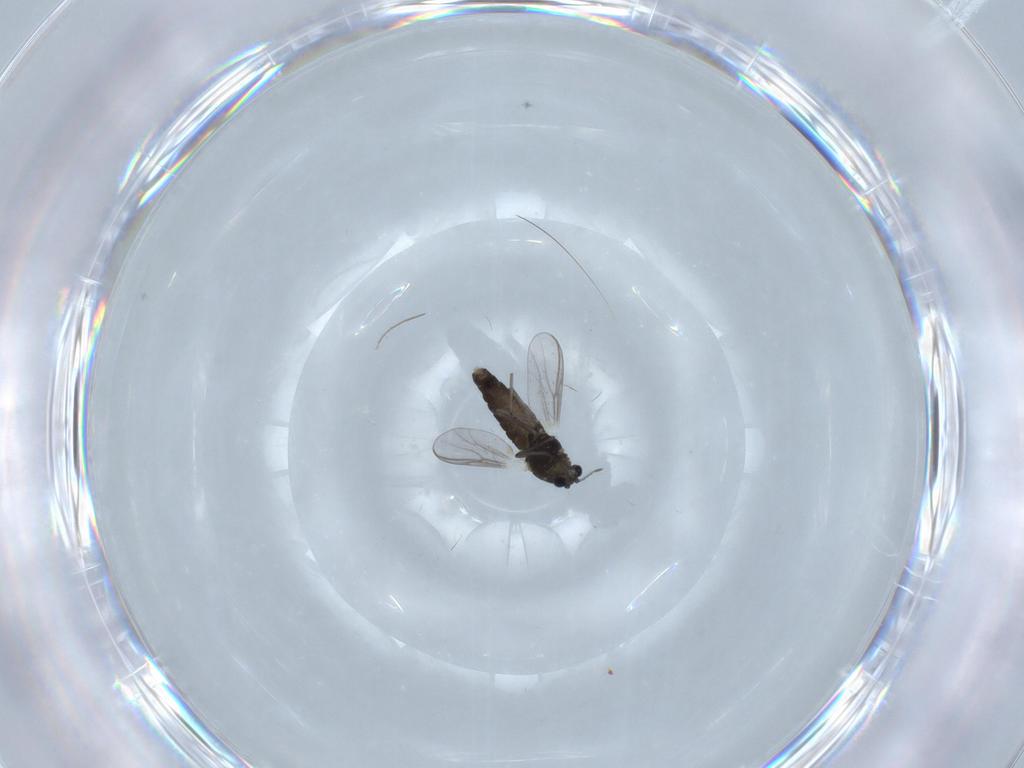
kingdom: Animalia
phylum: Arthropoda
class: Insecta
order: Diptera
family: Chironomidae
